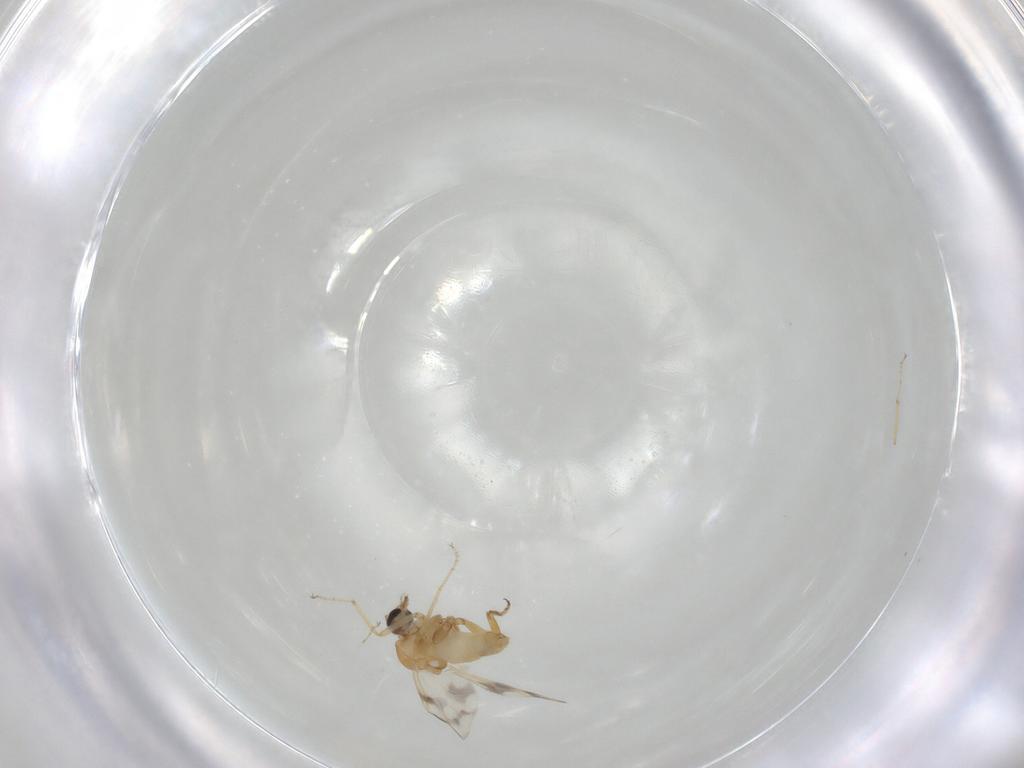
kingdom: Animalia
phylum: Arthropoda
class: Insecta
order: Diptera
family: Ceratopogonidae
